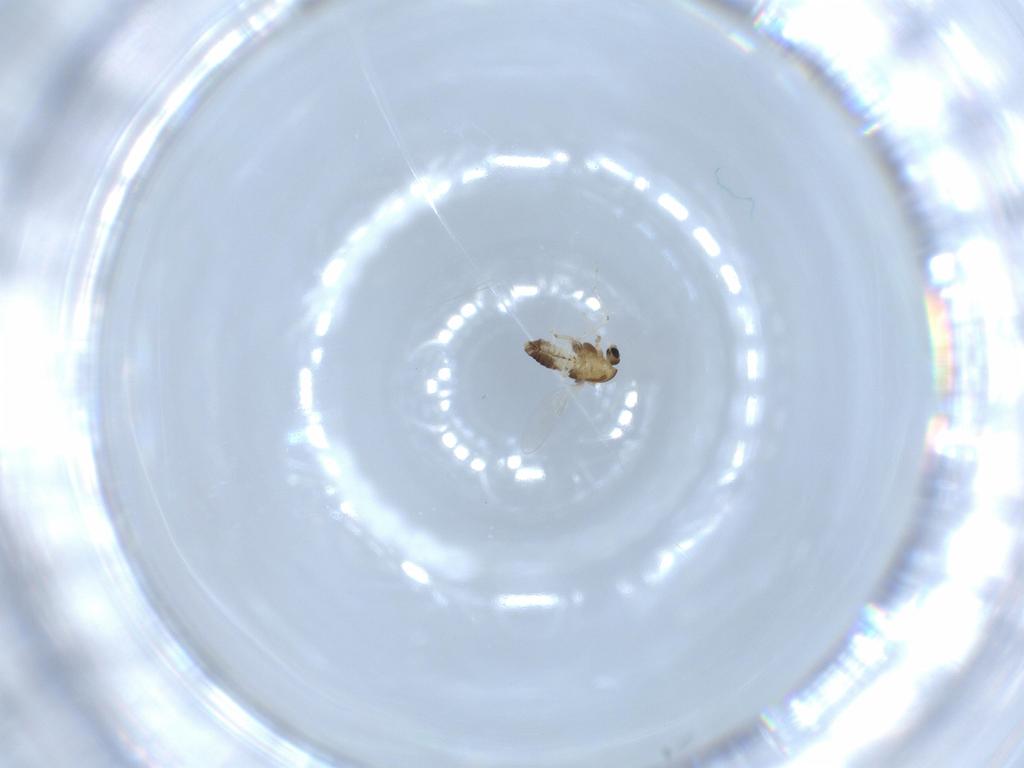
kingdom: Animalia
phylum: Arthropoda
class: Insecta
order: Diptera
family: Chironomidae
